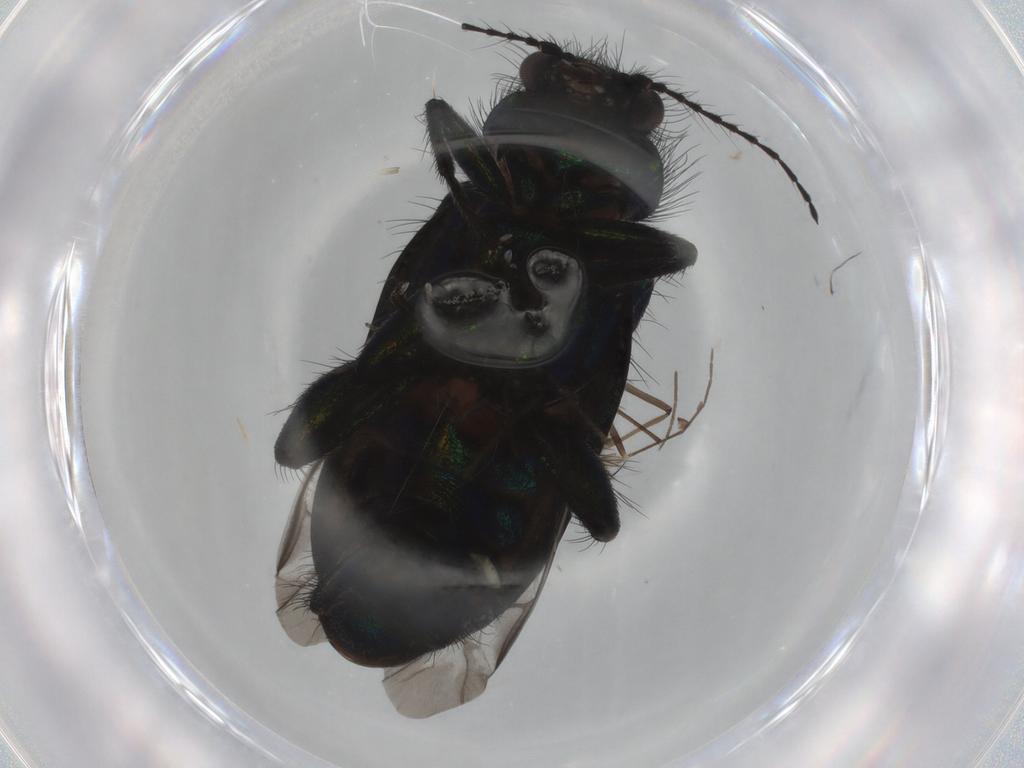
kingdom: Animalia
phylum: Arthropoda
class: Insecta
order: Coleoptera
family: Melyridae
